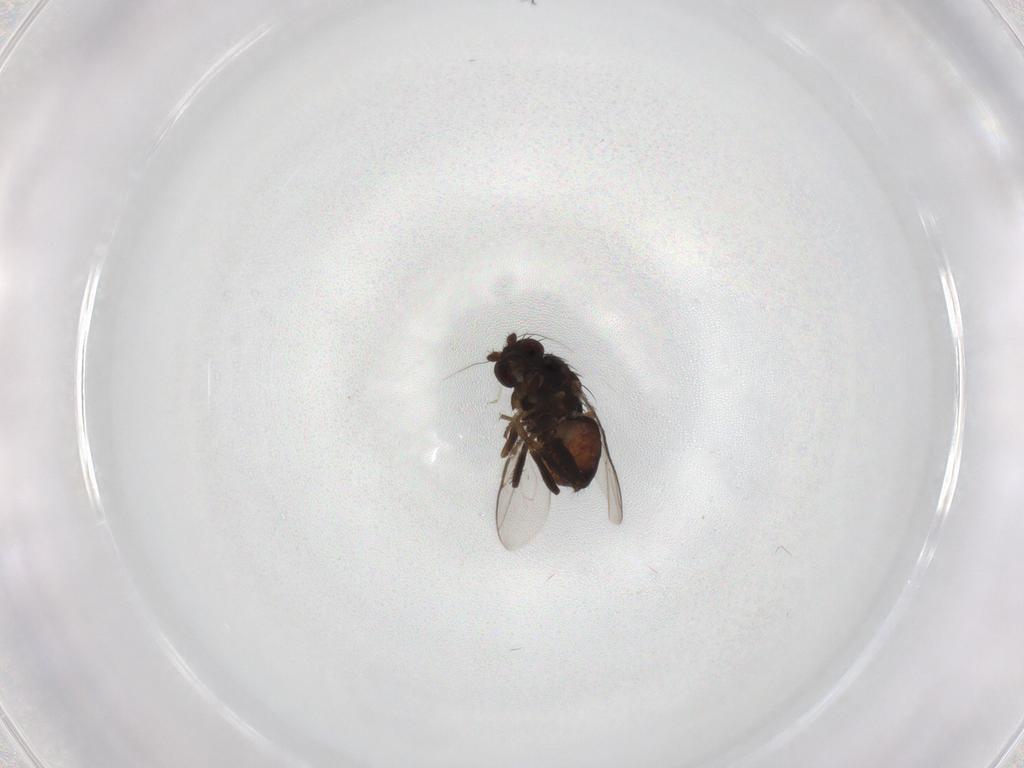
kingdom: Animalia
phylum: Arthropoda
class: Insecta
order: Diptera
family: Sphaeroceridae
